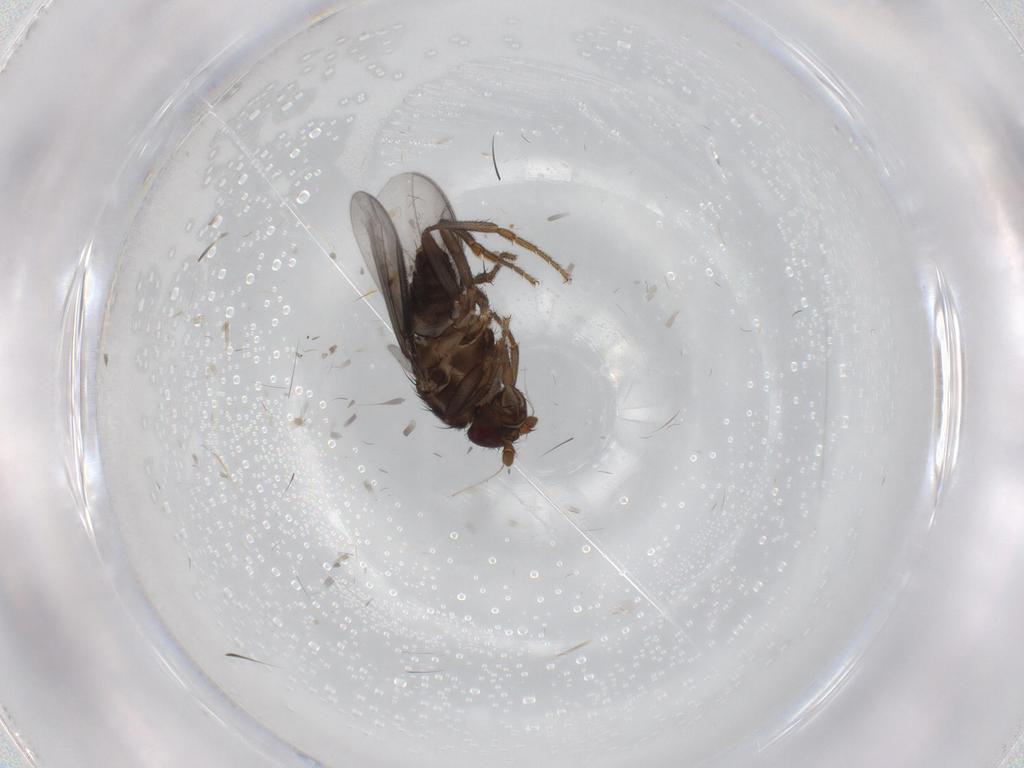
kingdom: Animalia
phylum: Arthropoda
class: Insecta
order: Diptera
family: Sphaeroceridae
